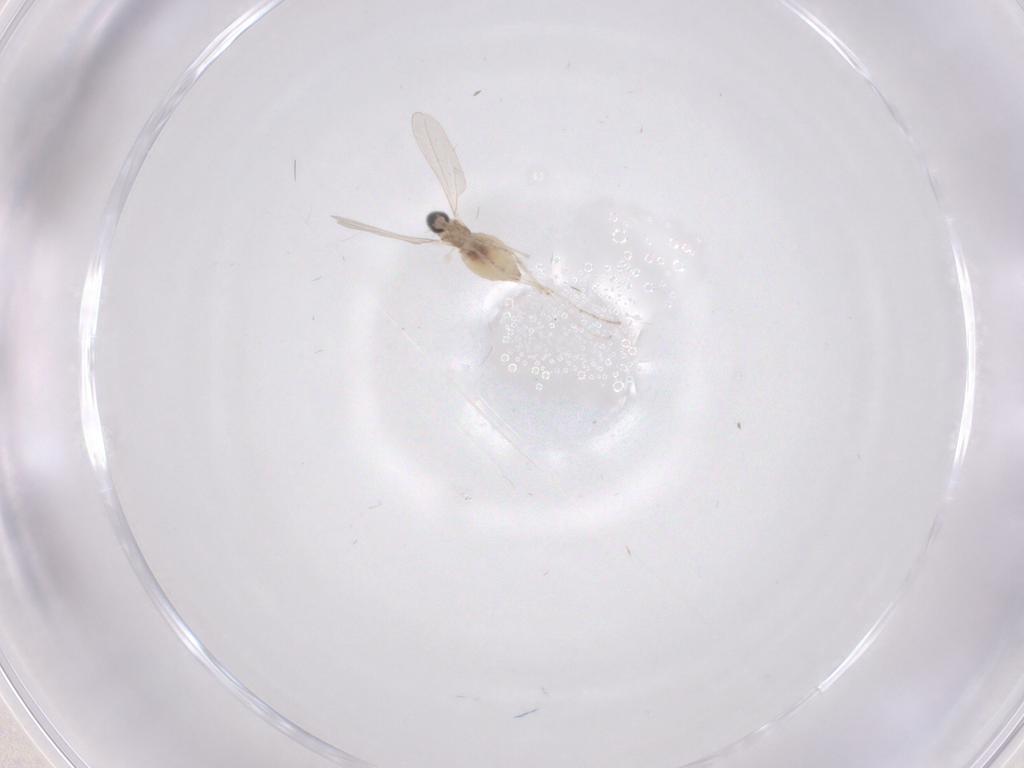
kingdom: Animalia
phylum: Arthropoda
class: Insecta
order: Diptera
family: Cecidomyiidae
